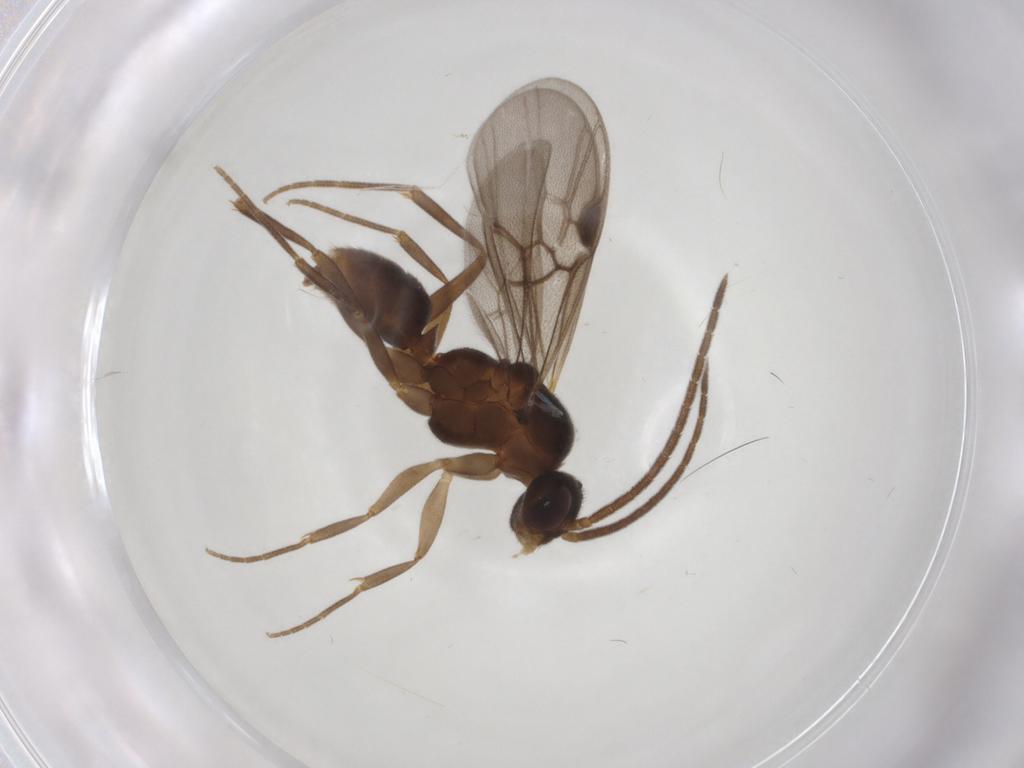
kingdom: Animalia
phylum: Arthropoda
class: Insecta
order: Hymenoptera
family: Formicidae
